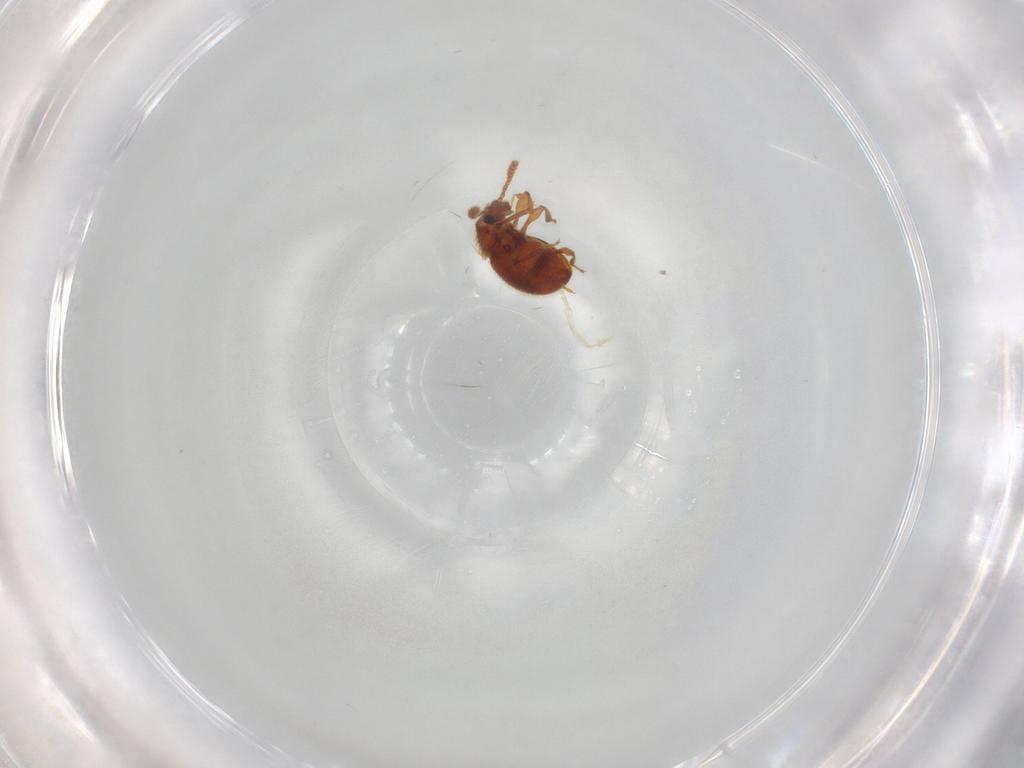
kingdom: Animalia
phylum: Arthropoda
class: Insecta
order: Coleoptera
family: Staphylinidae
